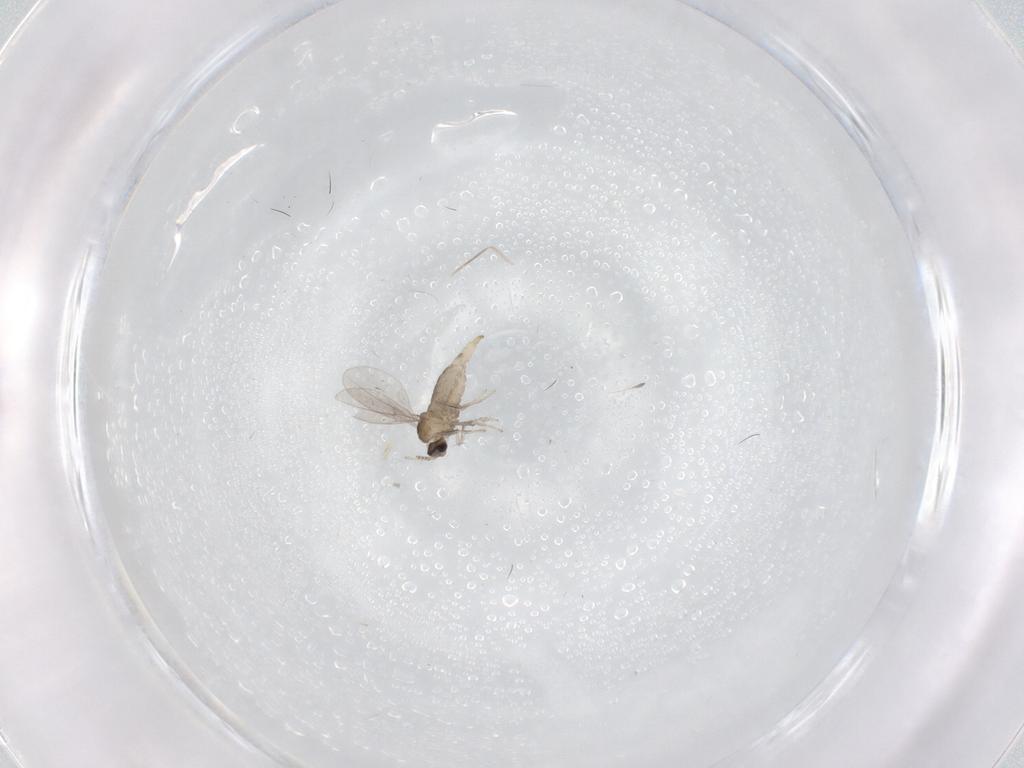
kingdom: Animalia
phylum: Arthropoda
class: Insecta
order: Diptera
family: Cecidomyiidae
